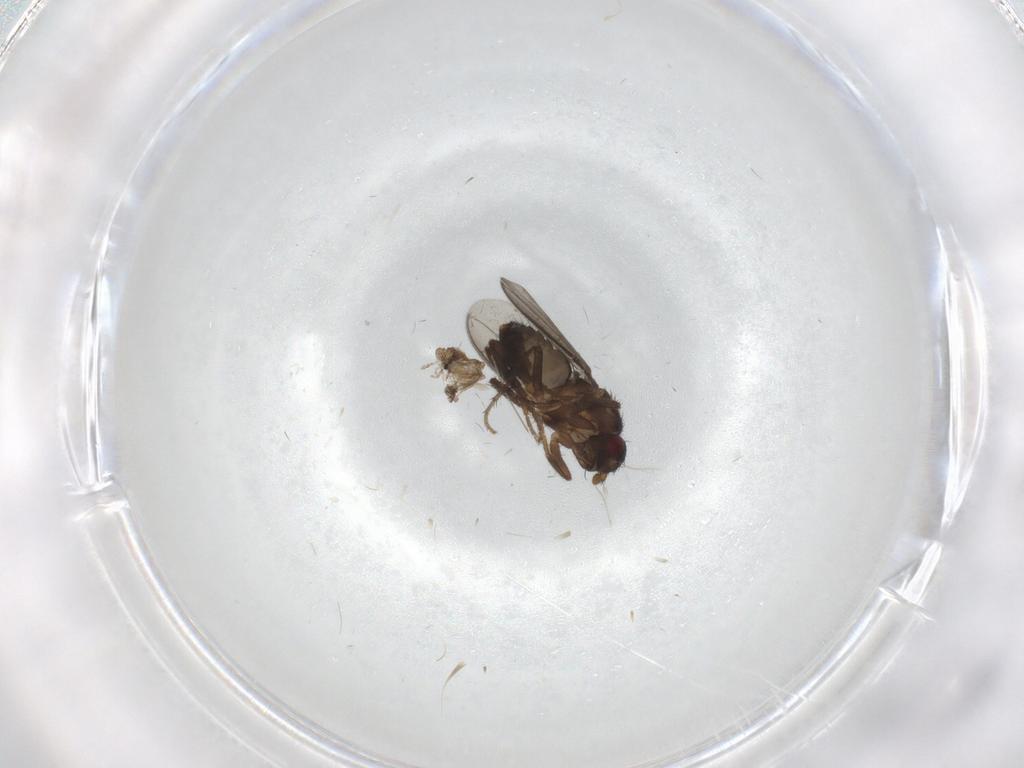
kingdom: Animalia
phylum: Arthropoda
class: Insecta
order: Diptera
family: Sphaeroceridae
